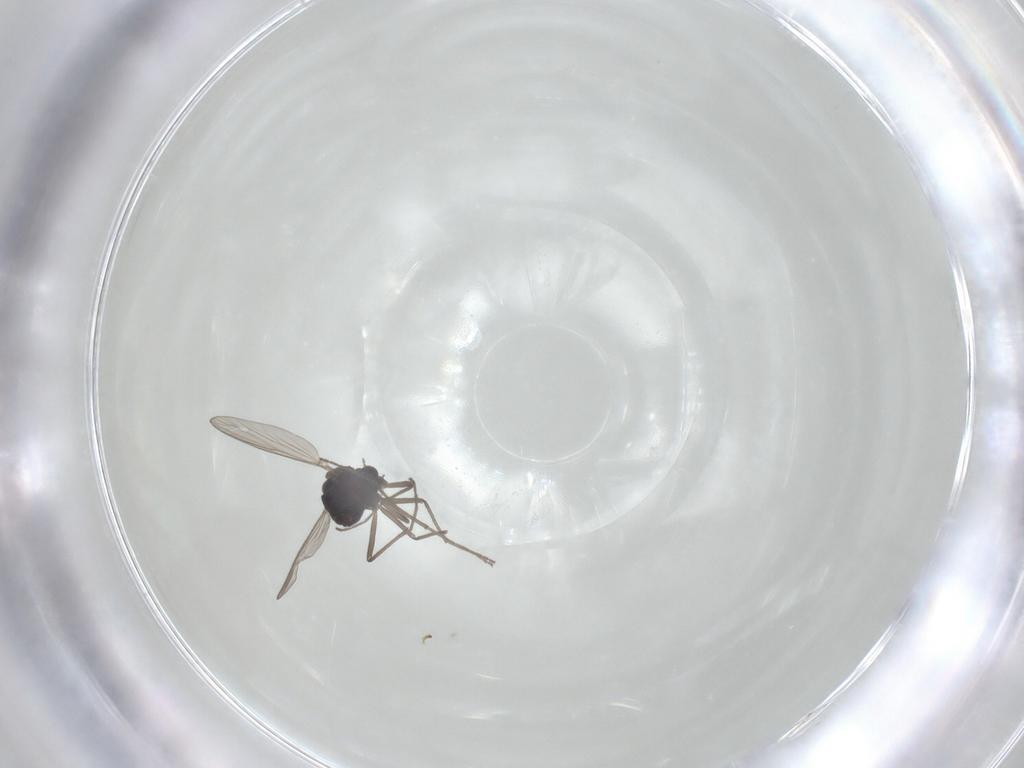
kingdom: Animalia
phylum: Arthropoda
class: Insecta
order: Diptera
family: Chironomidae
